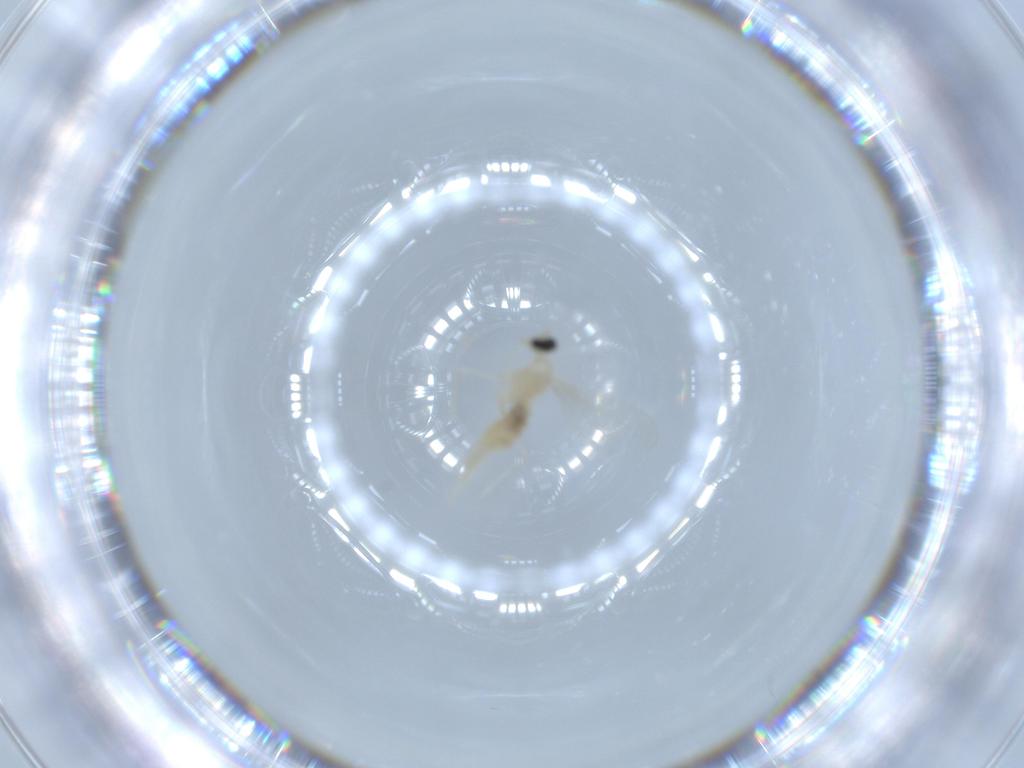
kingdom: Animalia
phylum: Arthropoda
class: Insecta
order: Diptera
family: Cecidomyiidae
